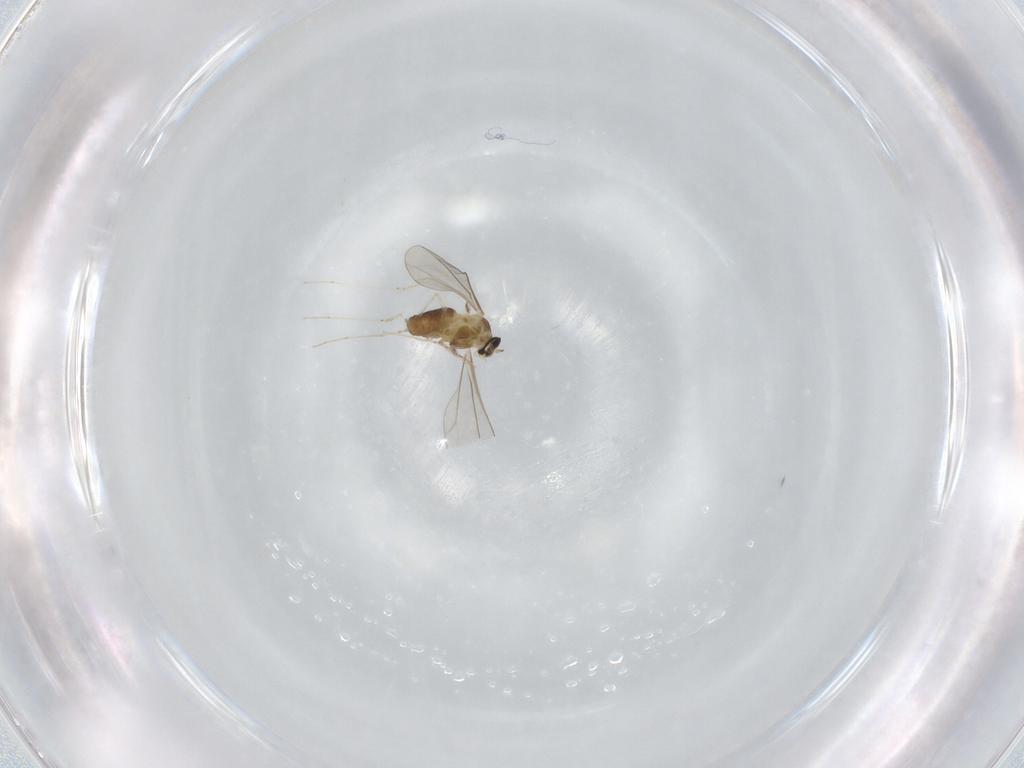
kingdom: Animalia
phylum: Arthropoda
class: Insecta
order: Diptera
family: Cecidomyiidae
